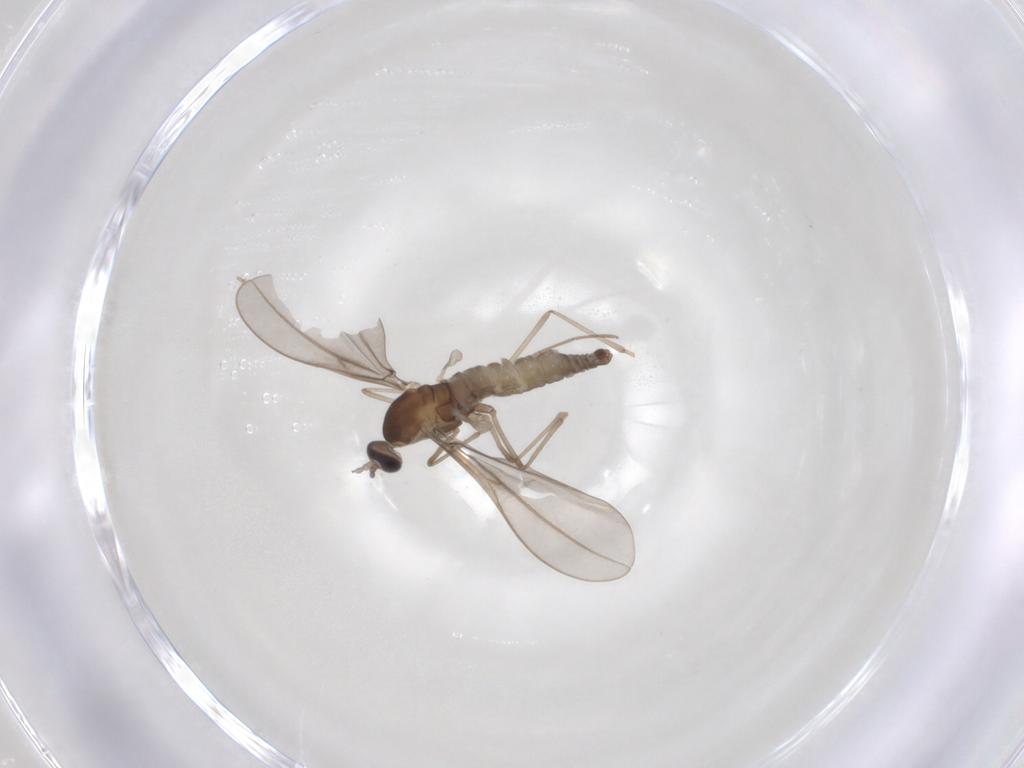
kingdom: Animalia
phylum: Arthropoda
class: Insecta
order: Diptera
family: Cecidomyiidae
